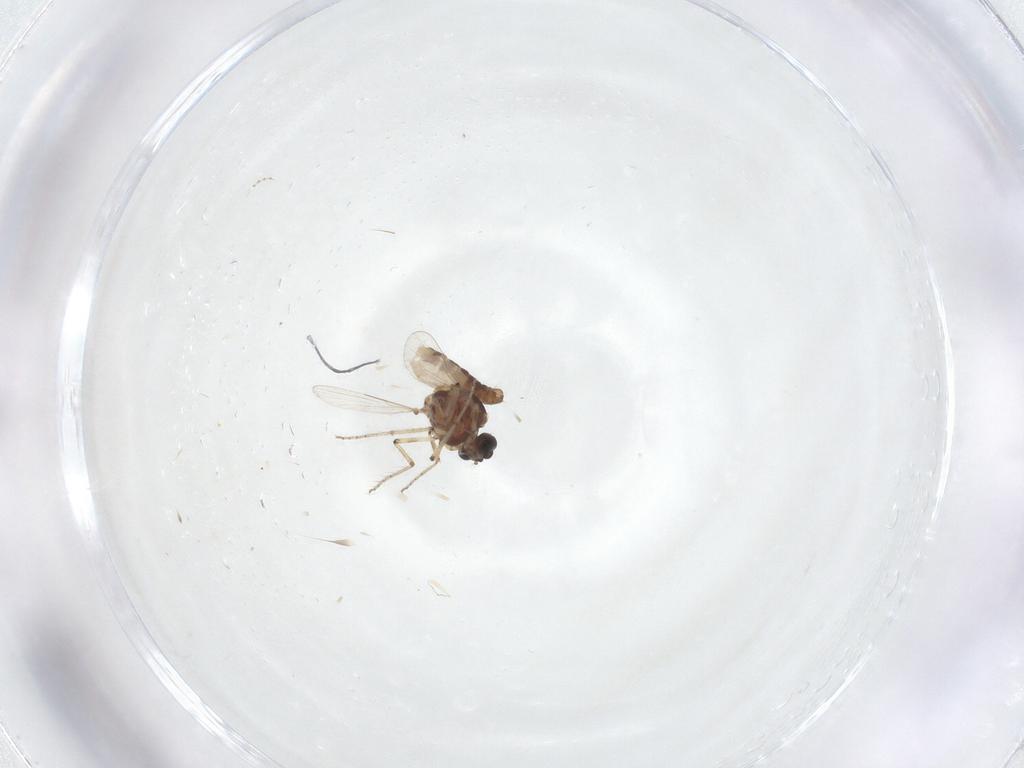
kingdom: Animalia
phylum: Arthropoda
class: Insecta
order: Diptera
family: Ceratopogonidae
